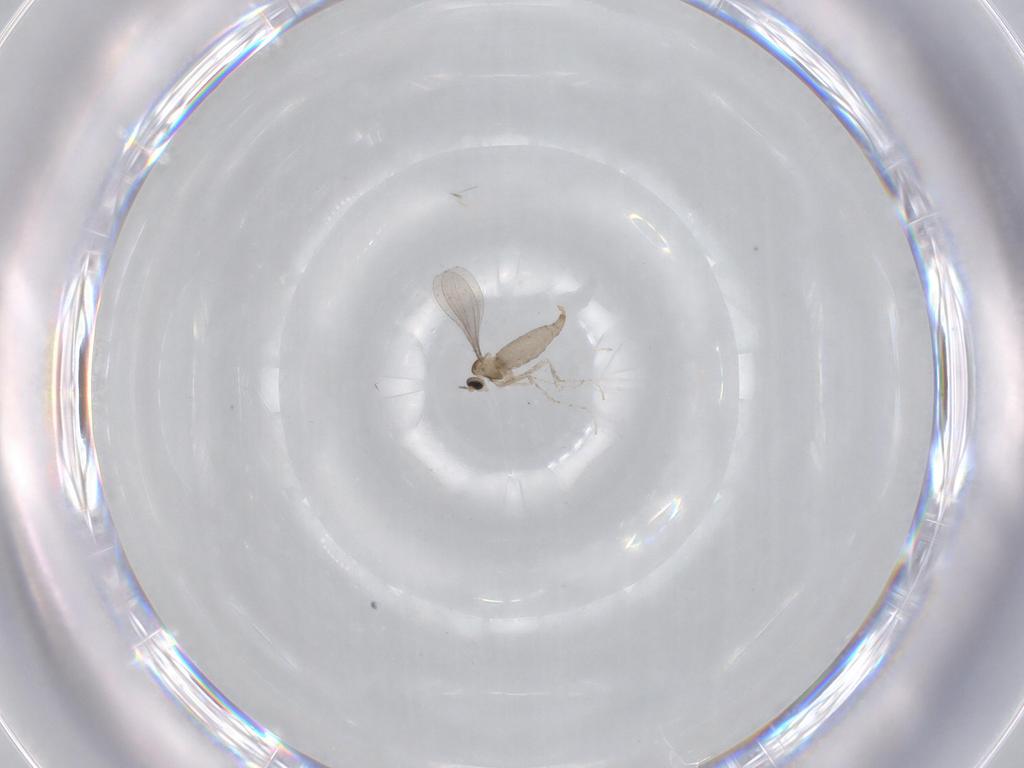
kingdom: Animalia
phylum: Arthropoda
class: Insecta
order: Diptera
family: Cecidomyiidae
